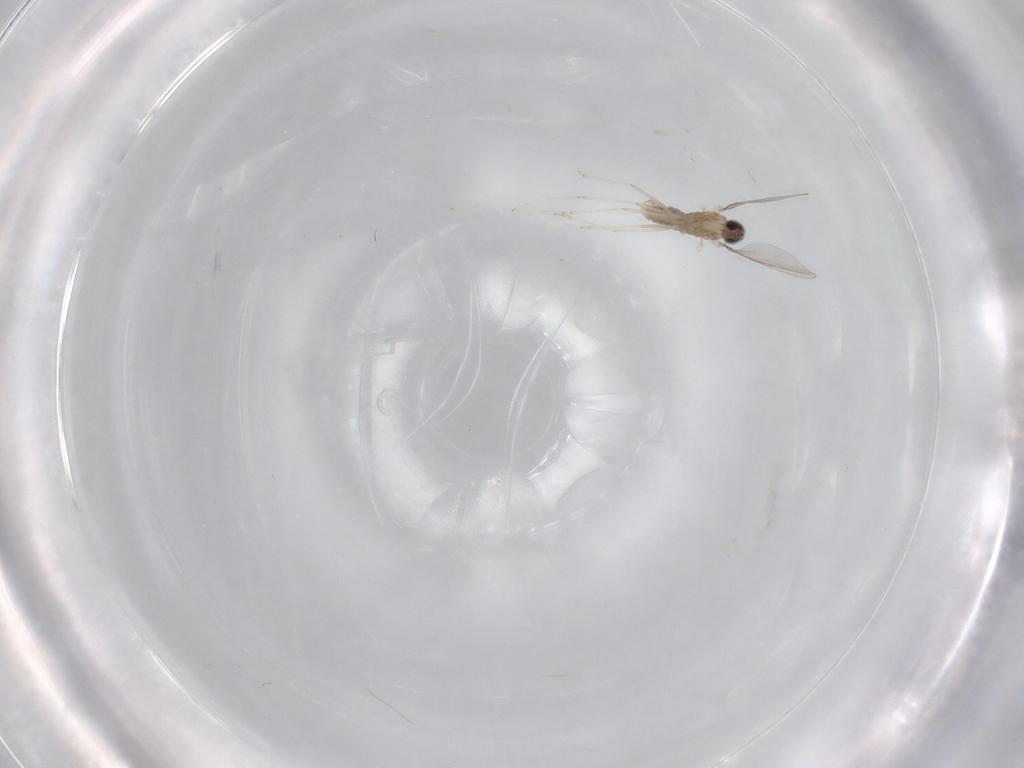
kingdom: Animalia
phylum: Arthropoda
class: Insecta
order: Diptera
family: Cecidomyiidae
